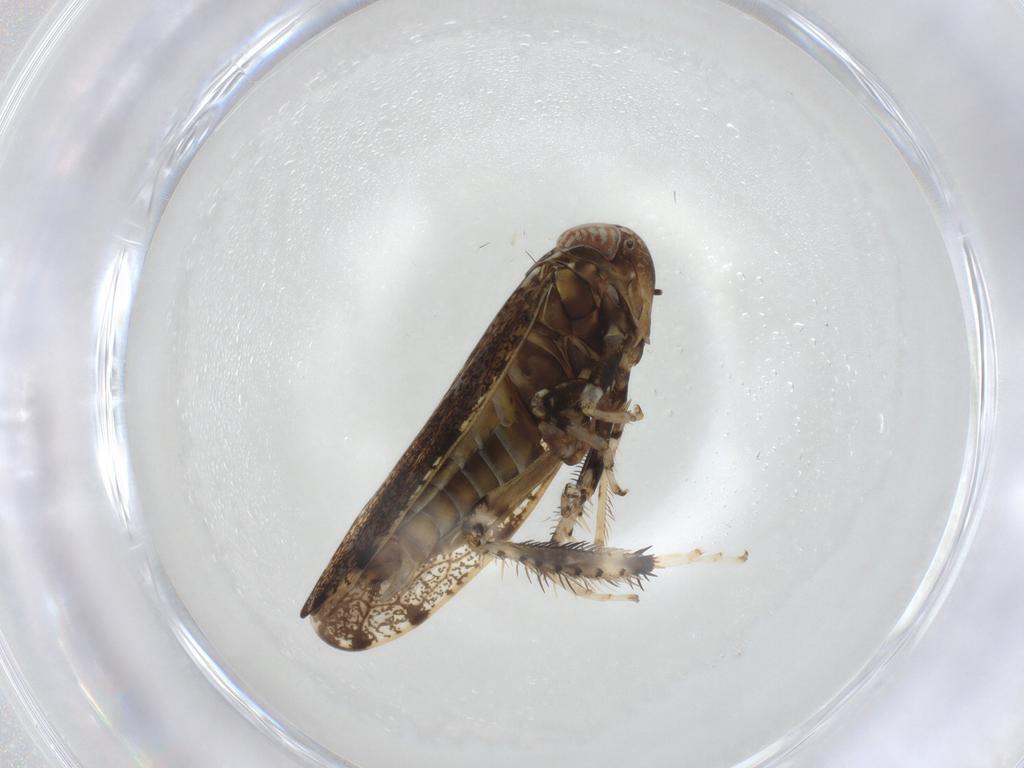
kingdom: Animalia
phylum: Arthropoda
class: Insecta
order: Hemiptera
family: Cicadellidae
